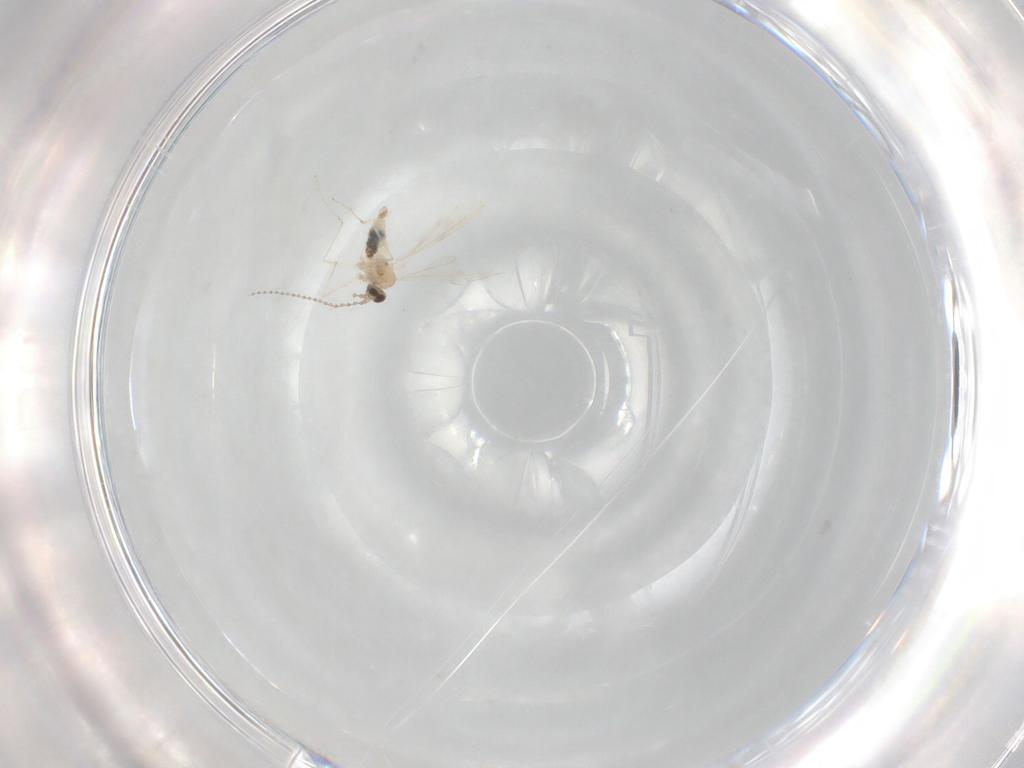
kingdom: Animalia
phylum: Arthropoda
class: Insecta
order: Diptera
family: Cecidomyiidae
